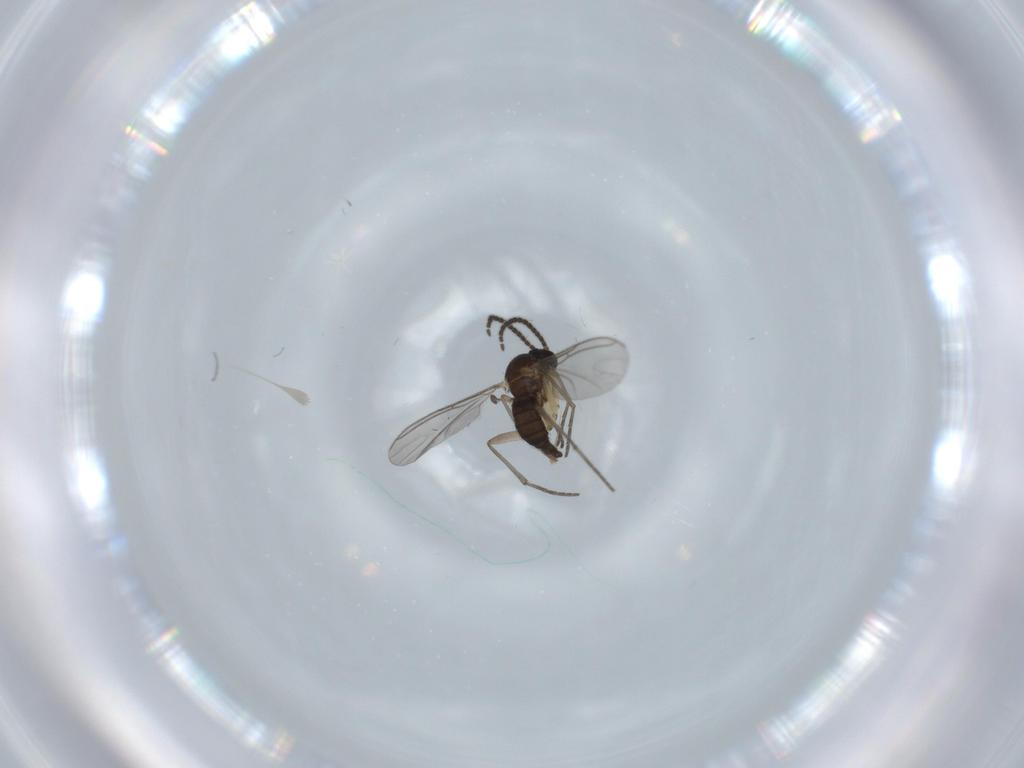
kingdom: Animalia
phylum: Arthropoda
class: Insecta
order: Diptera
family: Sciaridae
